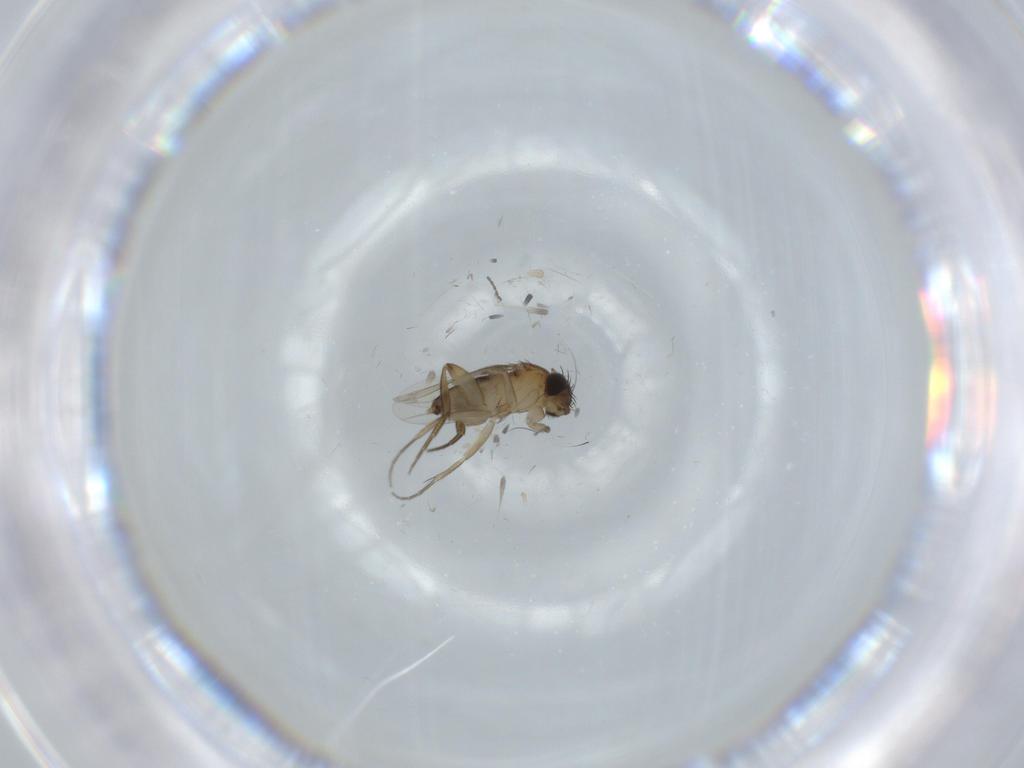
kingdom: Animalia
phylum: Arthropoda
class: Insecta
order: Diptera
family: Phoridae
